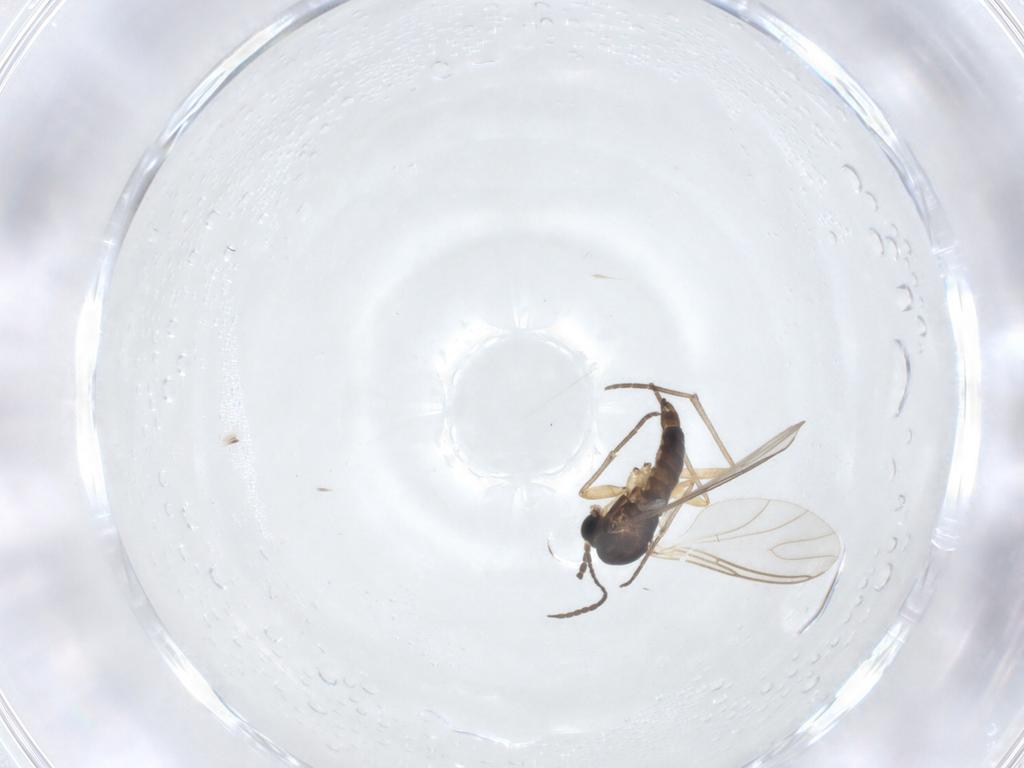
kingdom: Animalia
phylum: Arthropoda
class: Insecta
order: Diptera
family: Sciaridae
